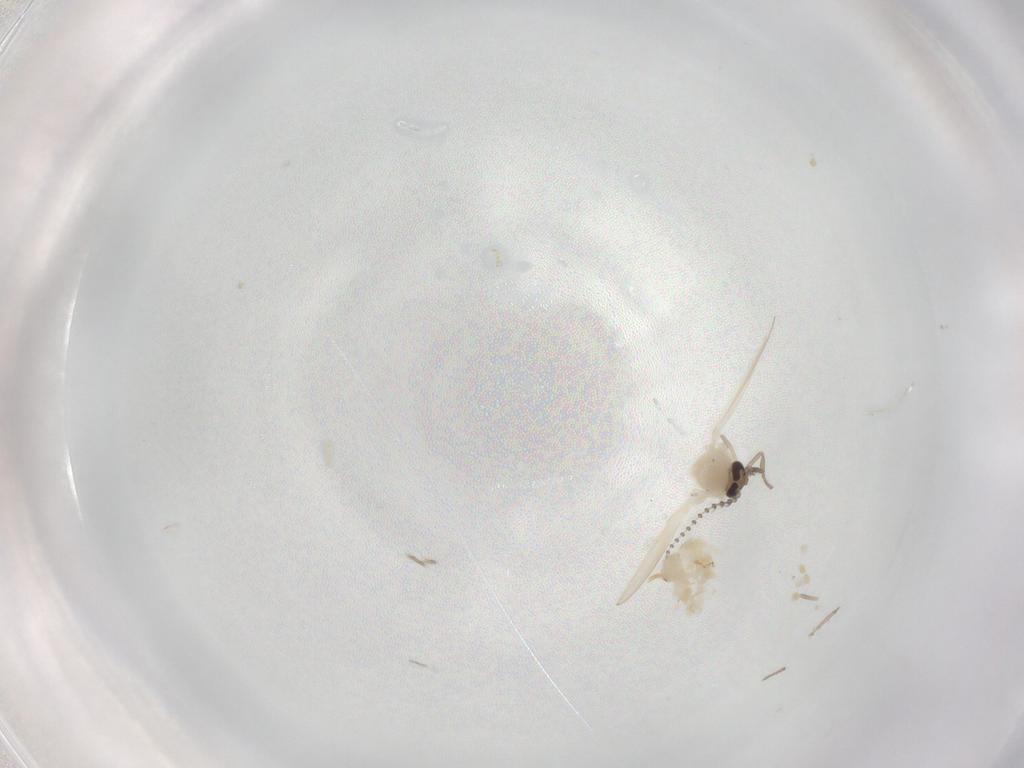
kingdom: Animalia
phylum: Arthropoda
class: Insecta
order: Diptera
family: Psychodidae
